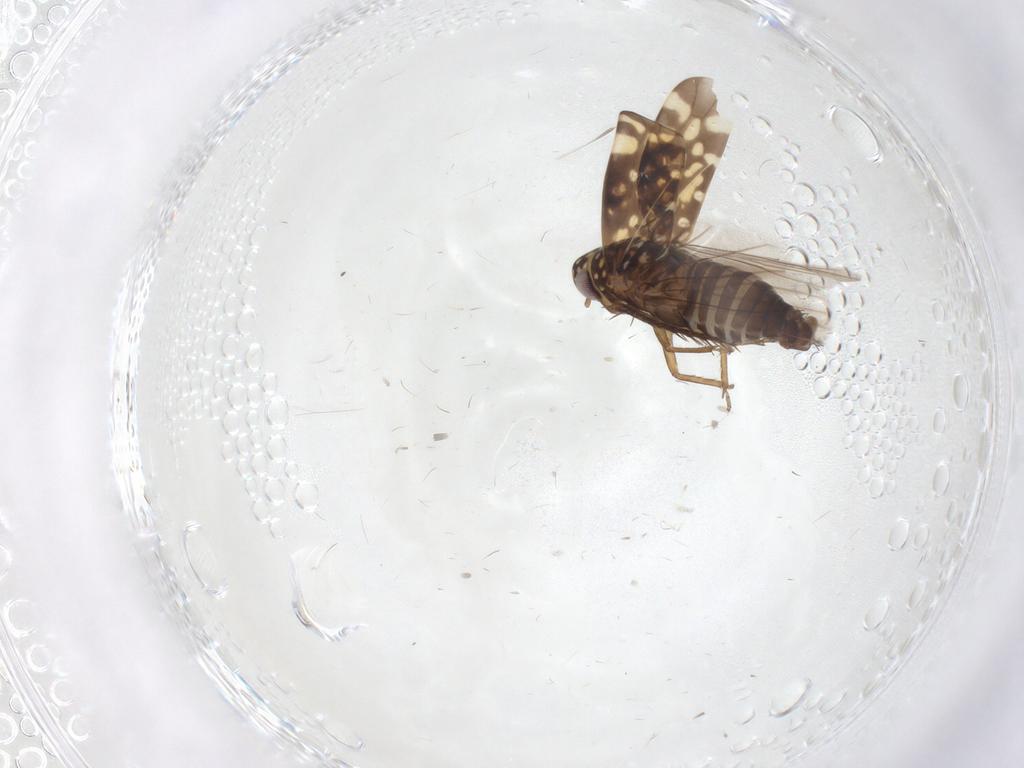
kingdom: Animalia
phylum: Arthropoda
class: Insecta
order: Hemiptera
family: Cicadellidae
